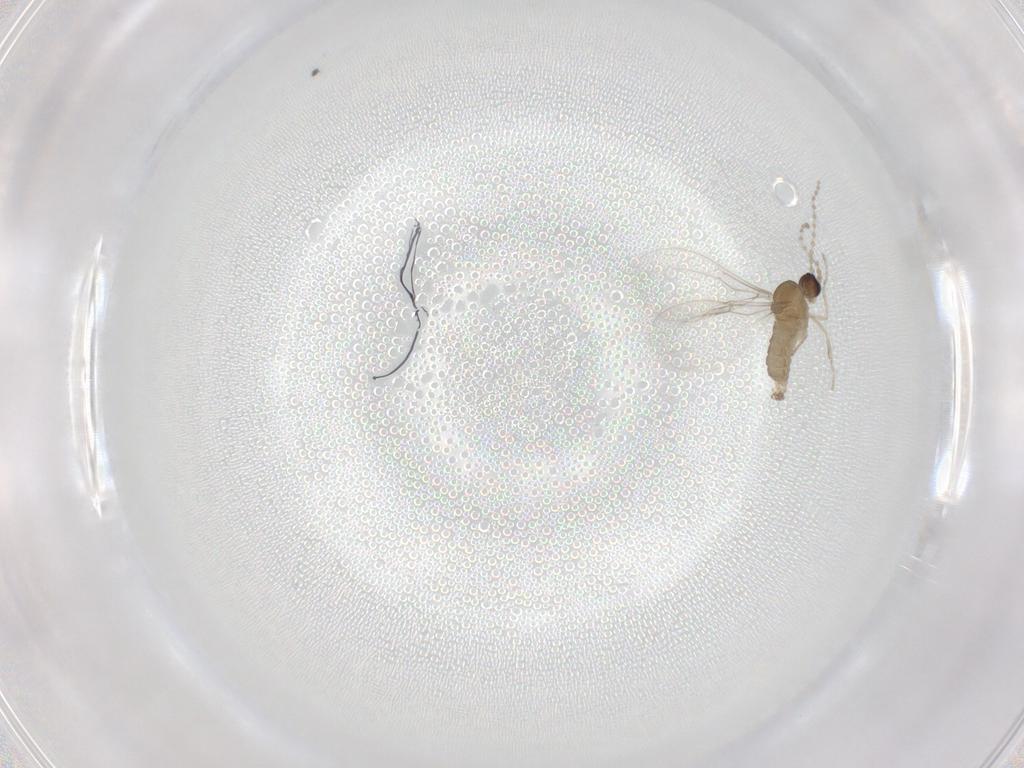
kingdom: Animalia
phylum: Arthropoda
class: Insecta
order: Diptera
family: Cecidomyiidae
